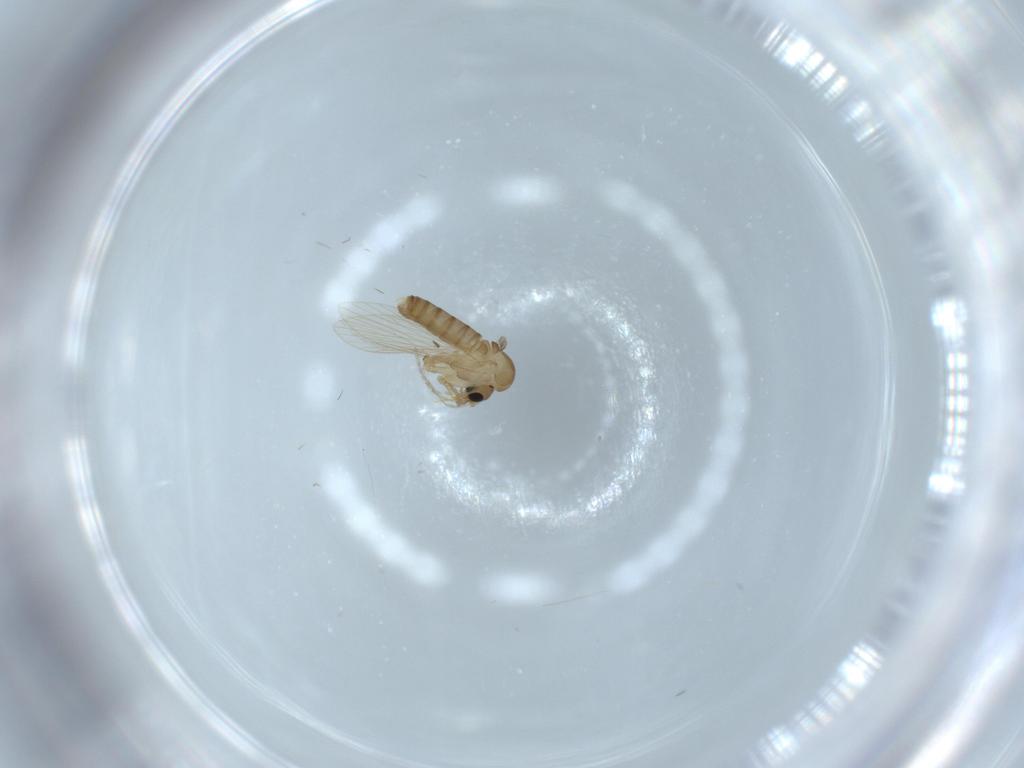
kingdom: Animalia
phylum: Arthropoda
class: Insecta
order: Diptera
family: Psychodidae
